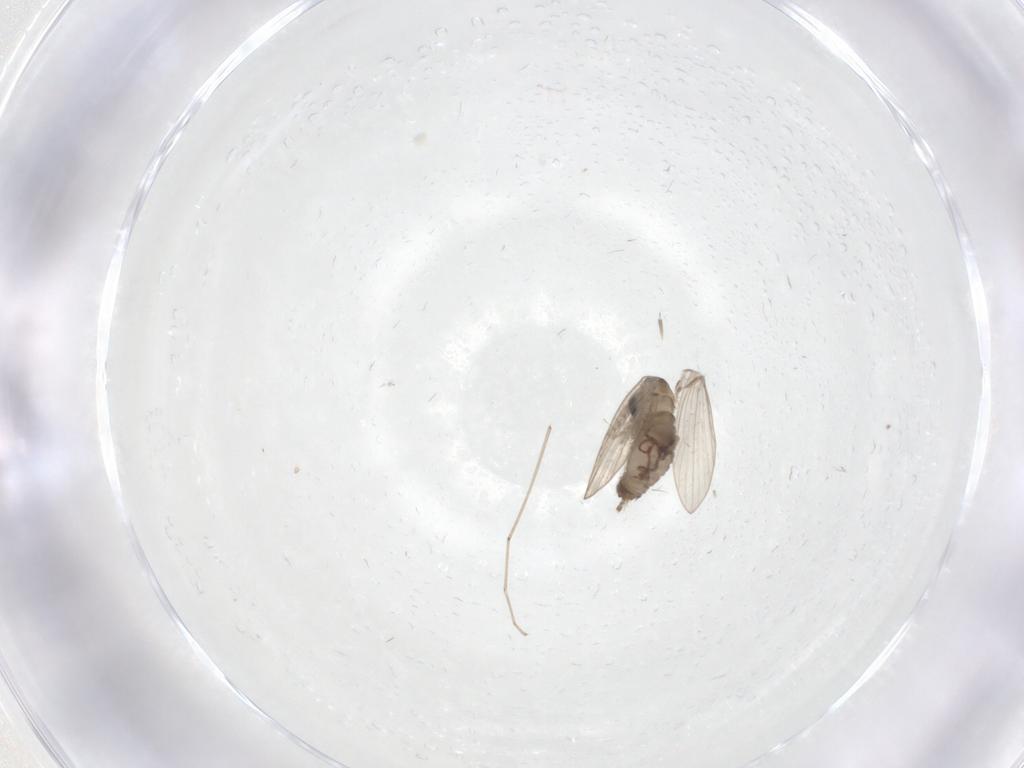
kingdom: Animalia
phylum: Arthropoda
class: Insecta
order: Diptera
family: Psychodidae
